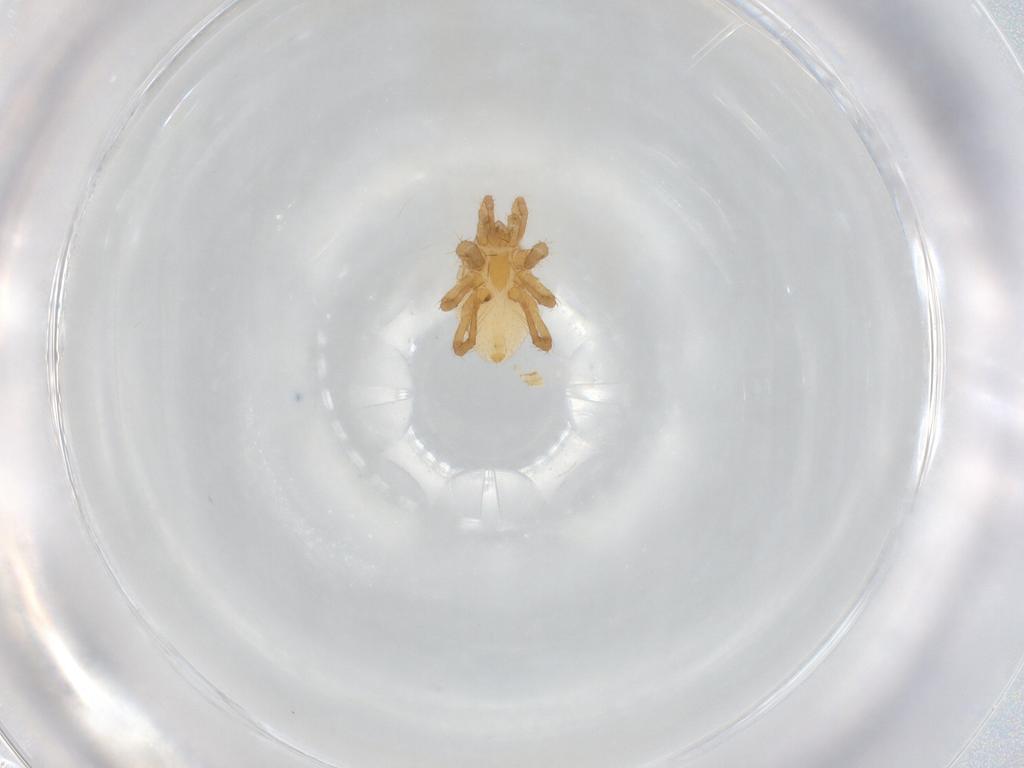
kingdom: Animalia
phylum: Arthropoda
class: Arachnida
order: Mesostigmata
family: Parasitidae
